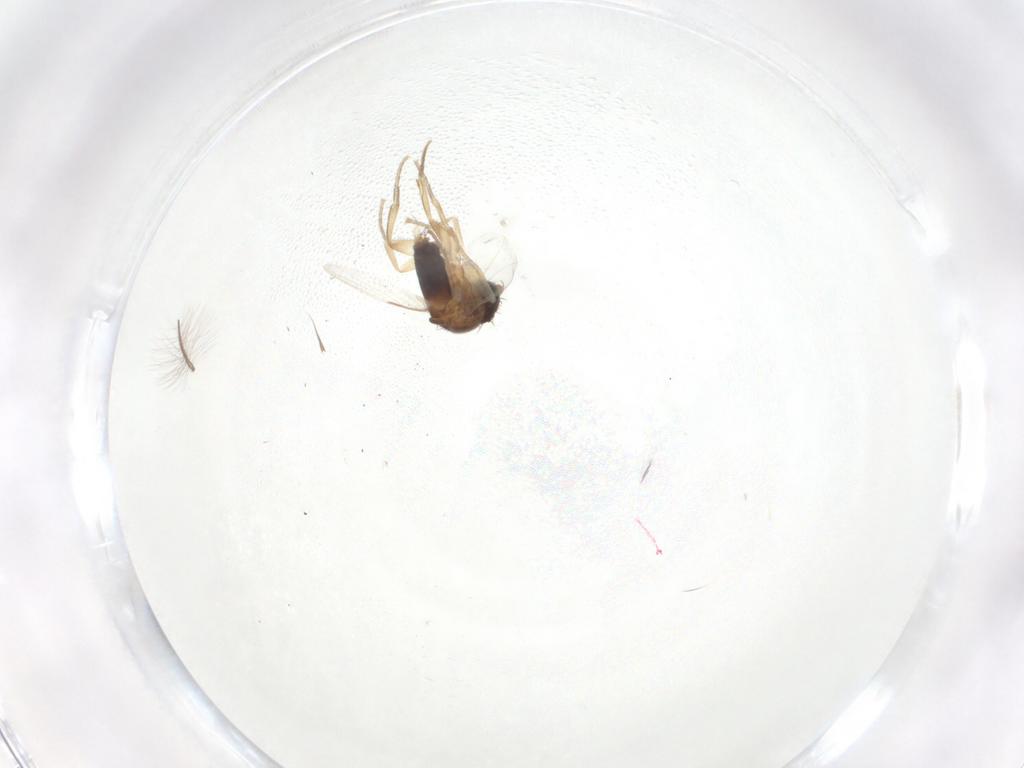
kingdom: Animalia
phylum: Arthropoda
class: Insecta
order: Diptera
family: Phoridae
